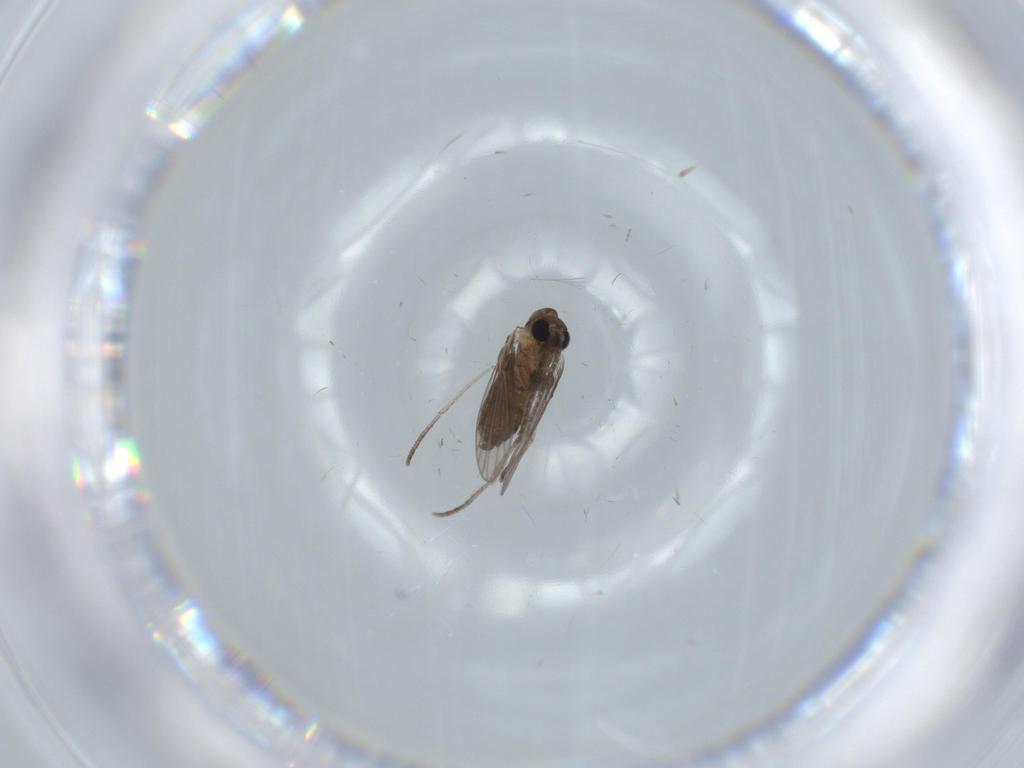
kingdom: Animalia
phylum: Arthropoda
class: Insecta
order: Diptera
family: Psychodidae
